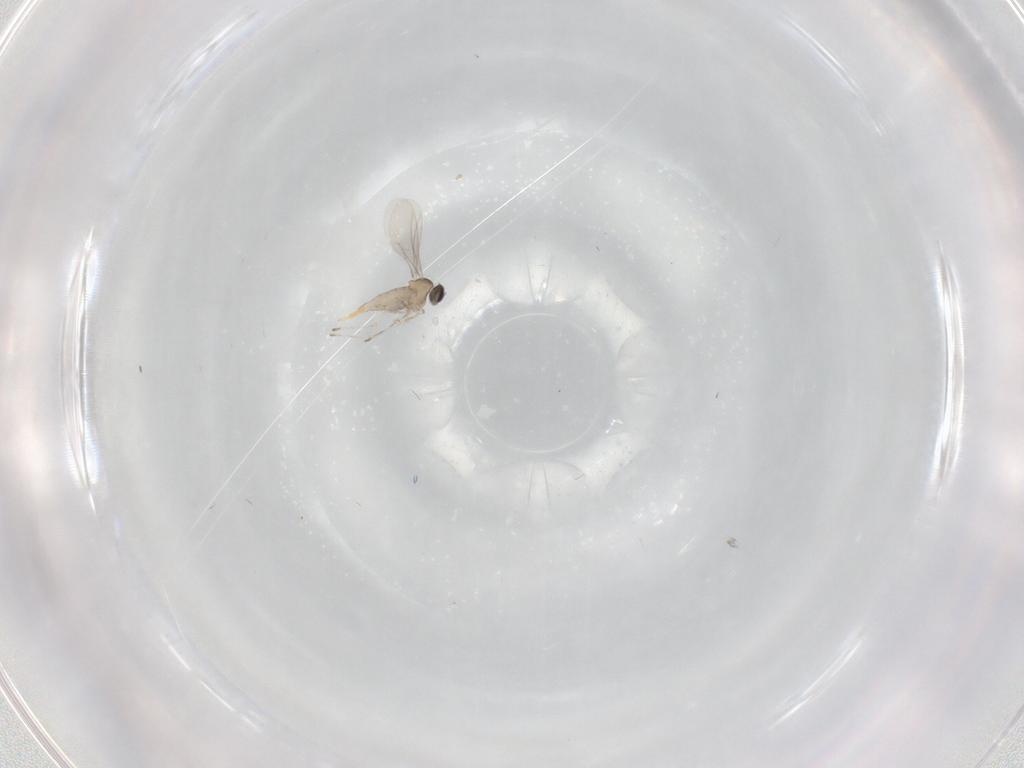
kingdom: Animalia
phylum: Arthropoda
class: Insecta
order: Diptera
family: Cecidomyiidae
